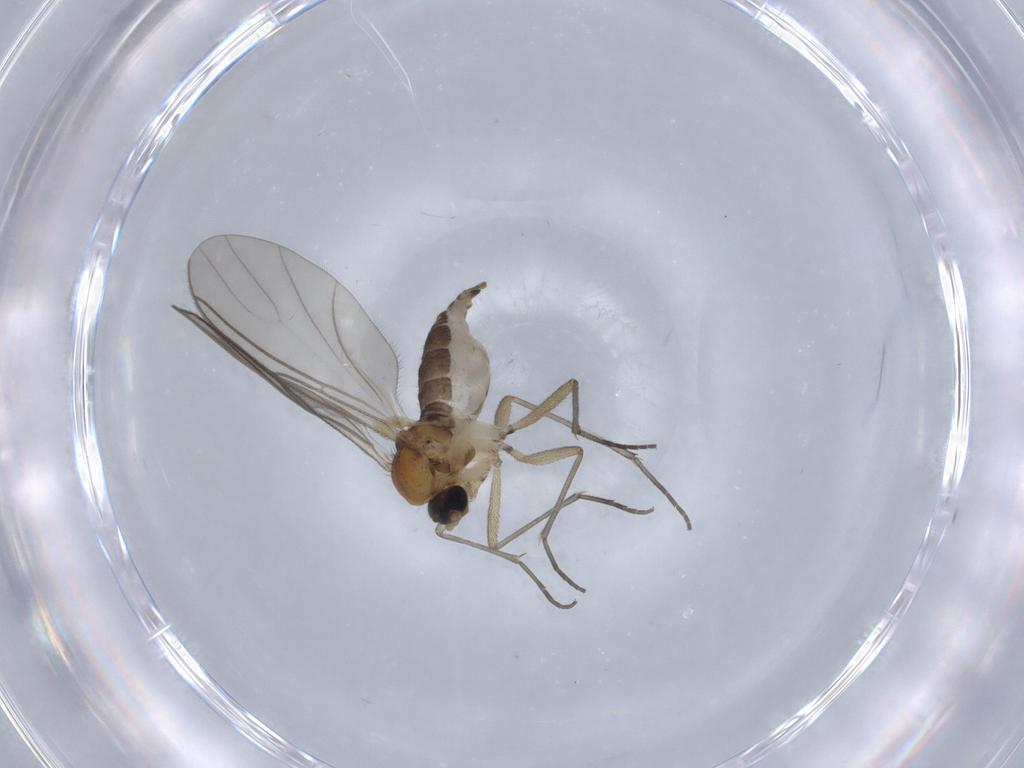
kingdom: Animalia
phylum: Arthropoda
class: Insecta
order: Diptera
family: Sciaridae
